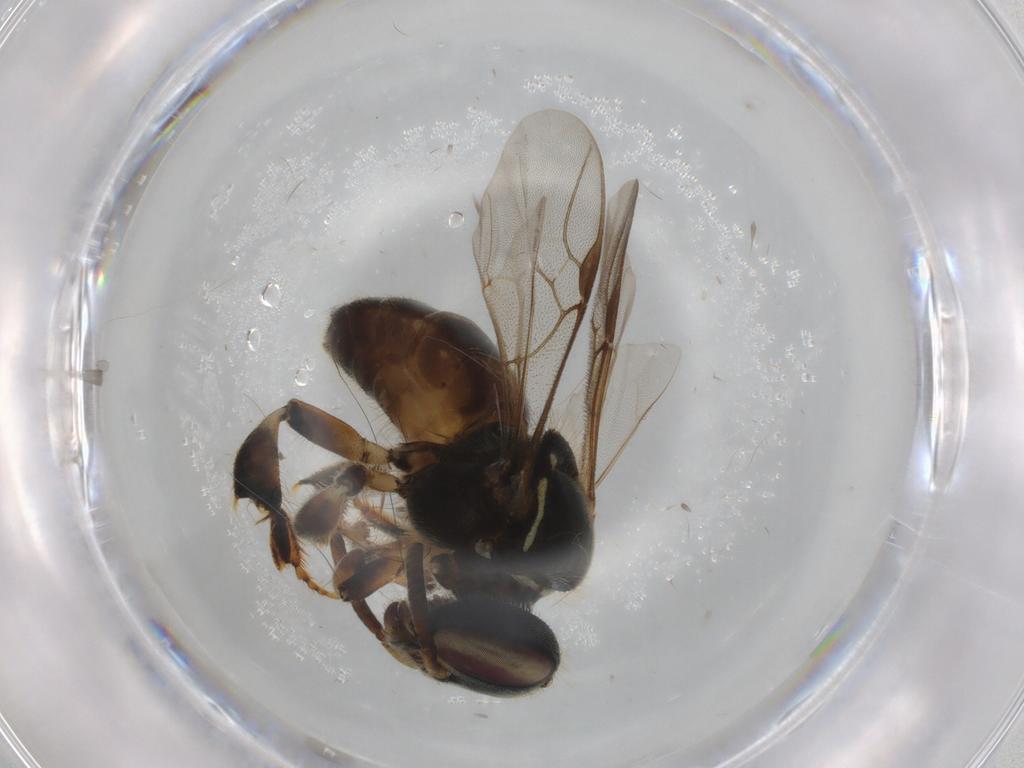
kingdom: Animalia
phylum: Arthropoda
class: Insecta
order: Hymenoptera
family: Apidae
